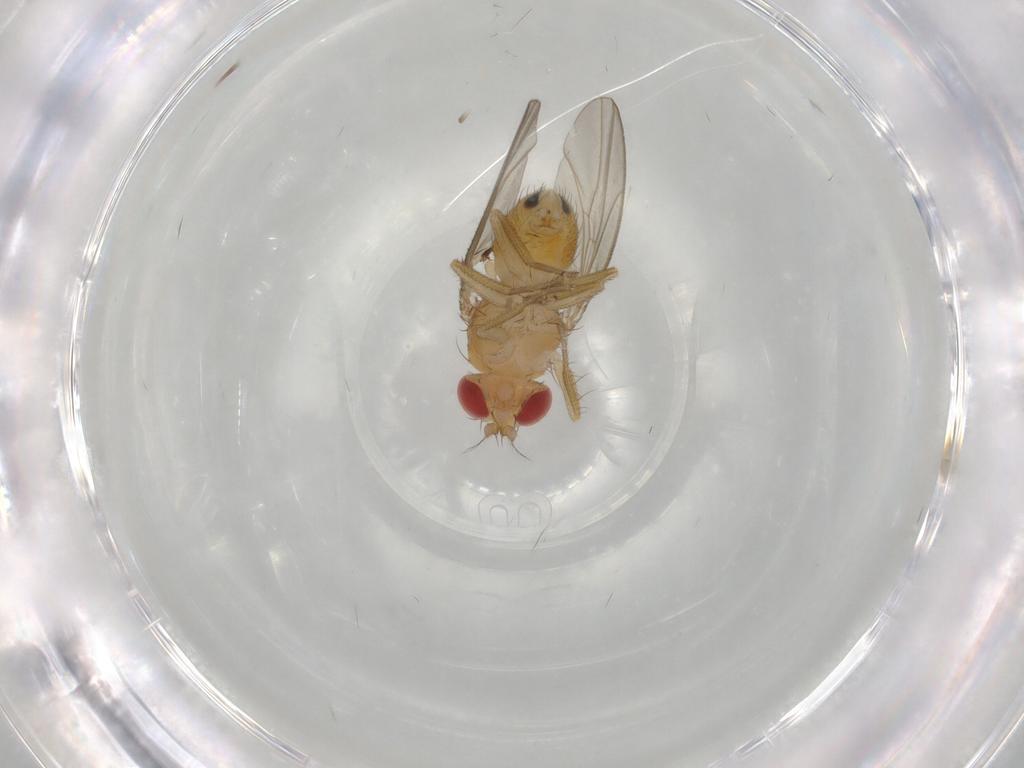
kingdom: Animalia
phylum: Arthropoda
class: Insecta
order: Diptera
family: Drosophilidae
